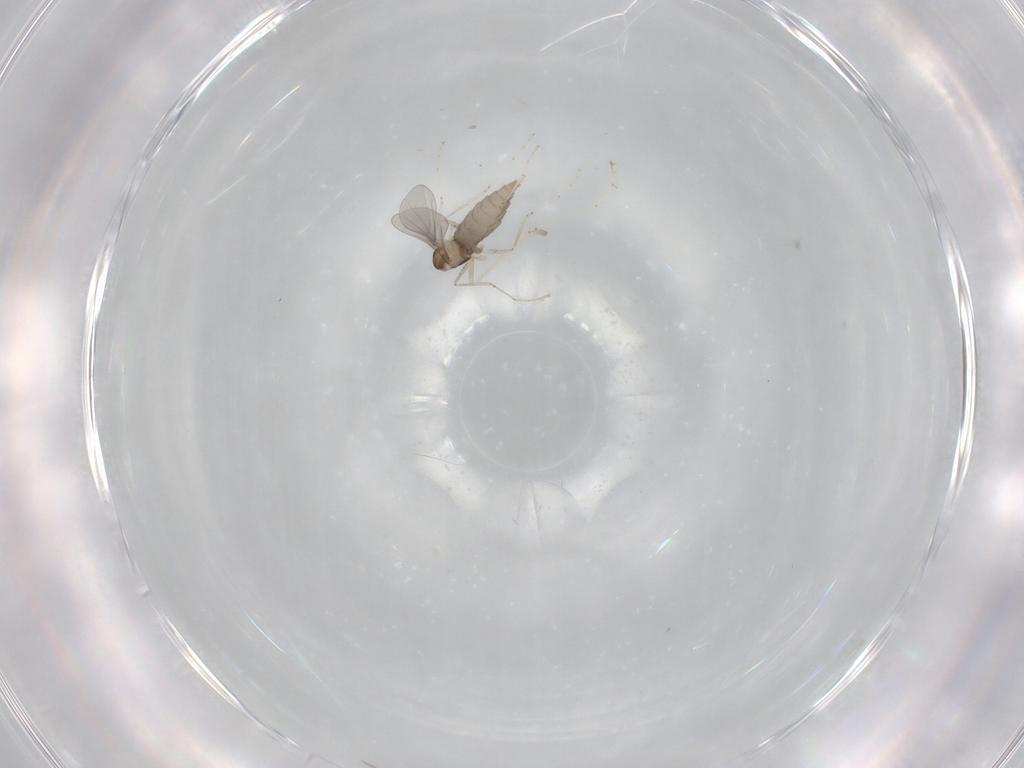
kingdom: Animalia
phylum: Arthropoda
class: Insecta
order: Diptera
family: Cecidomyiidae
